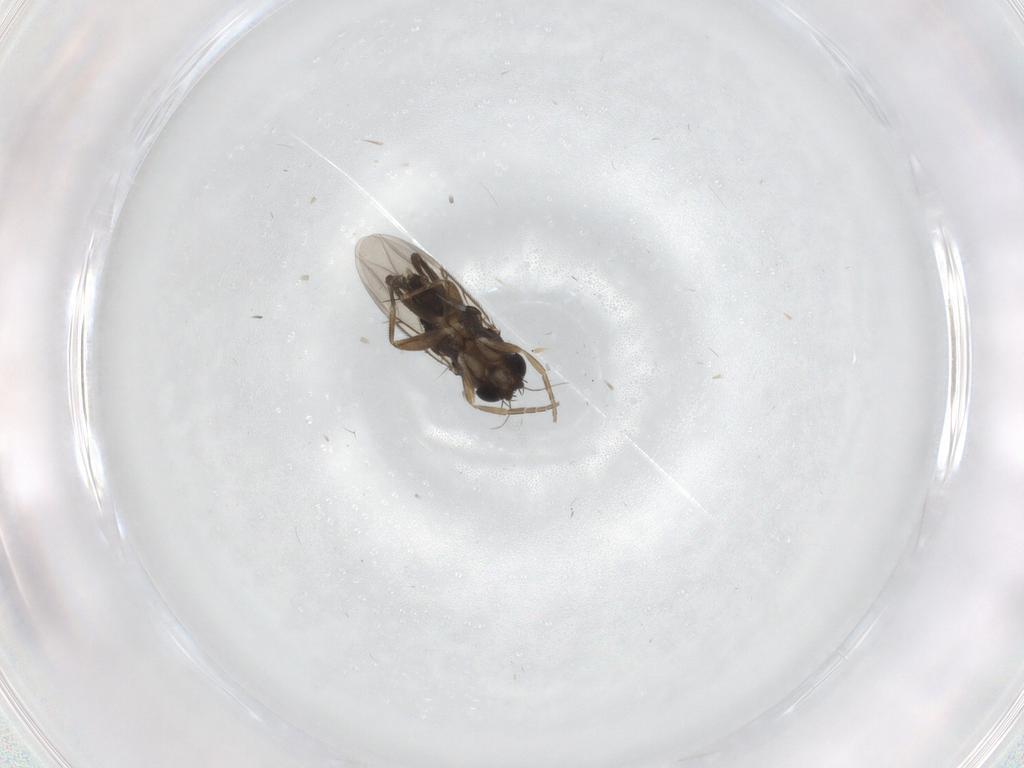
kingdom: Animalia
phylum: Arthropoda
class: Insecta
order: Diptera
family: Phoridae
